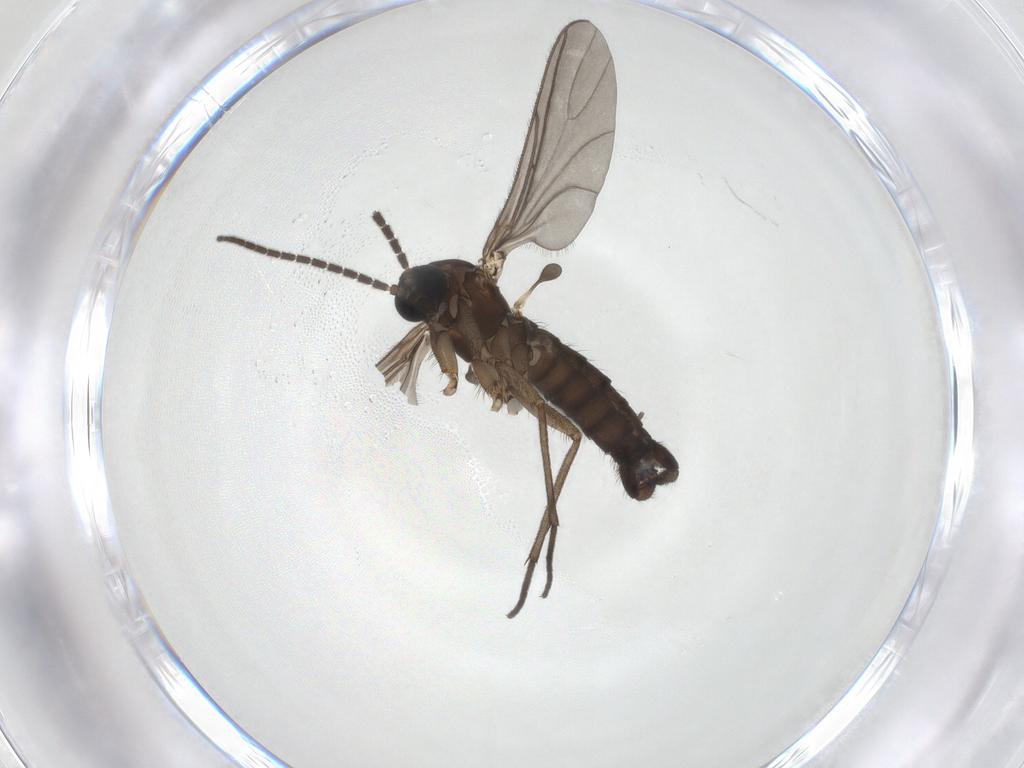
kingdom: Animalia
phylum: Arthropoda
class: Insecta
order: Diptera
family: Sciaridae
